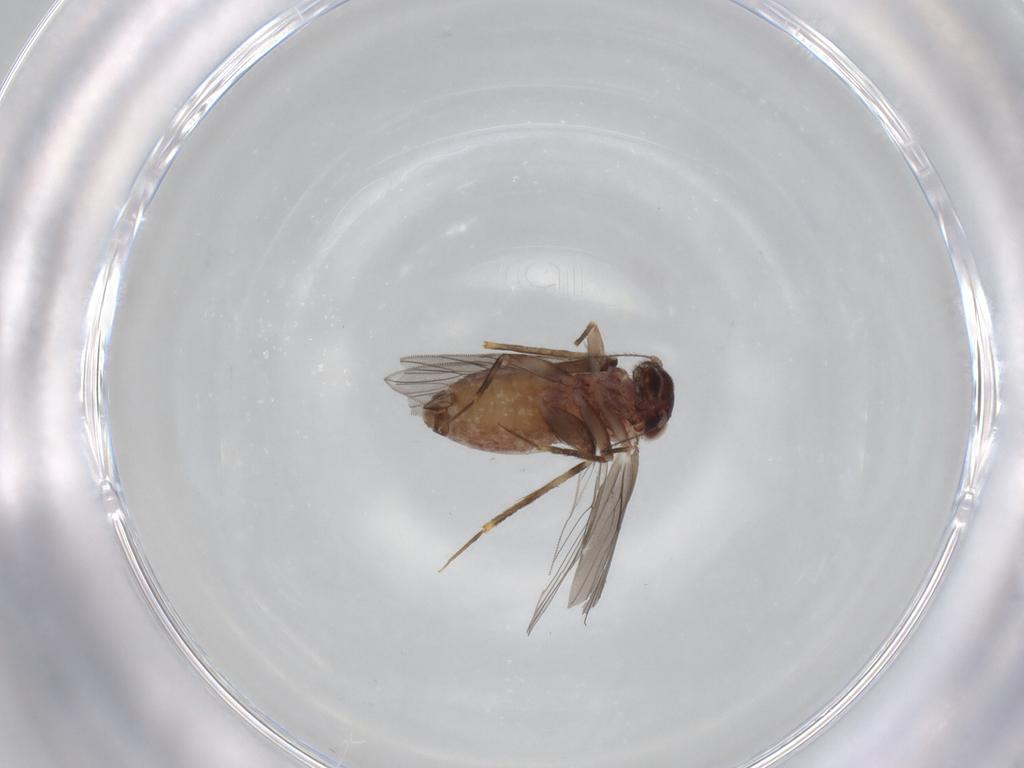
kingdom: Animalia
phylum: Arthropoda
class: Insecta
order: Psocodea
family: Lepidopsocidae
